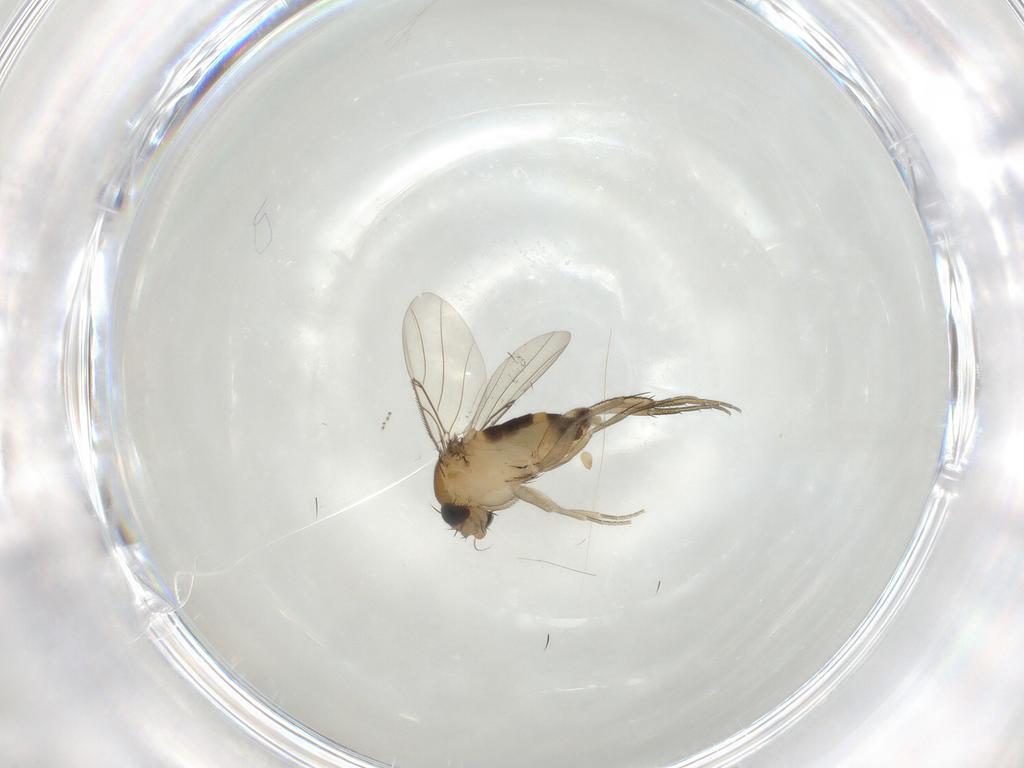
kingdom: Animalia
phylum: Arthropoda
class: Insecta
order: Diptera
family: Phoridae
